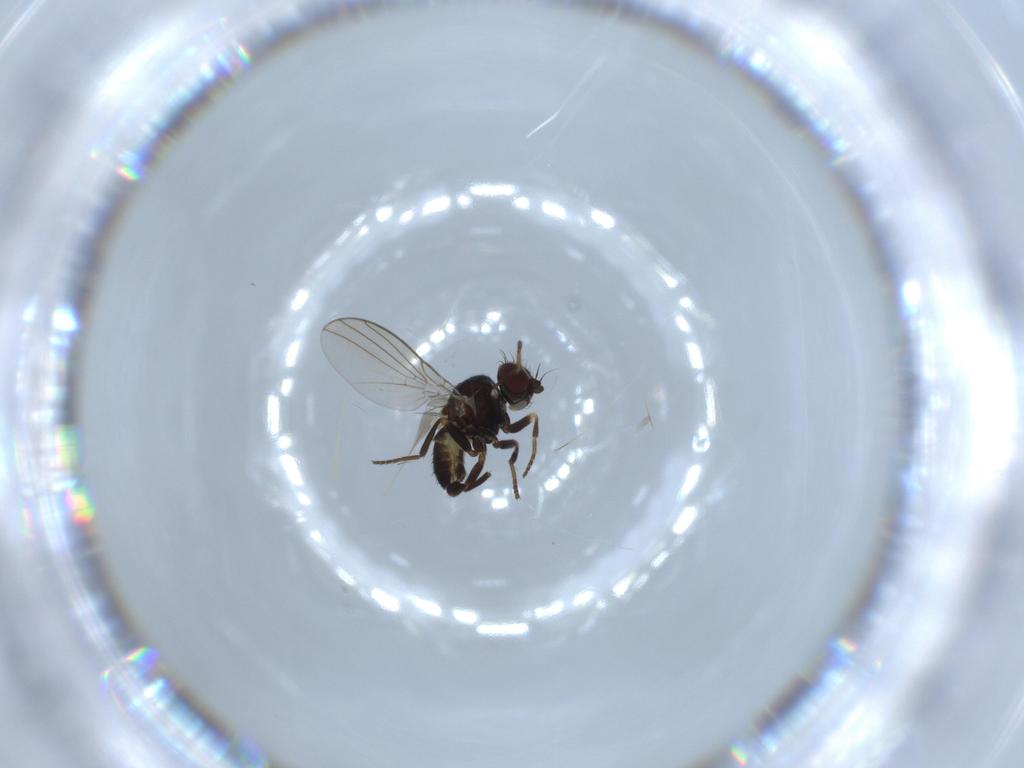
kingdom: Animalia
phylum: Arthropoda
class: Insecta
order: Diptera
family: Agromyzidae
